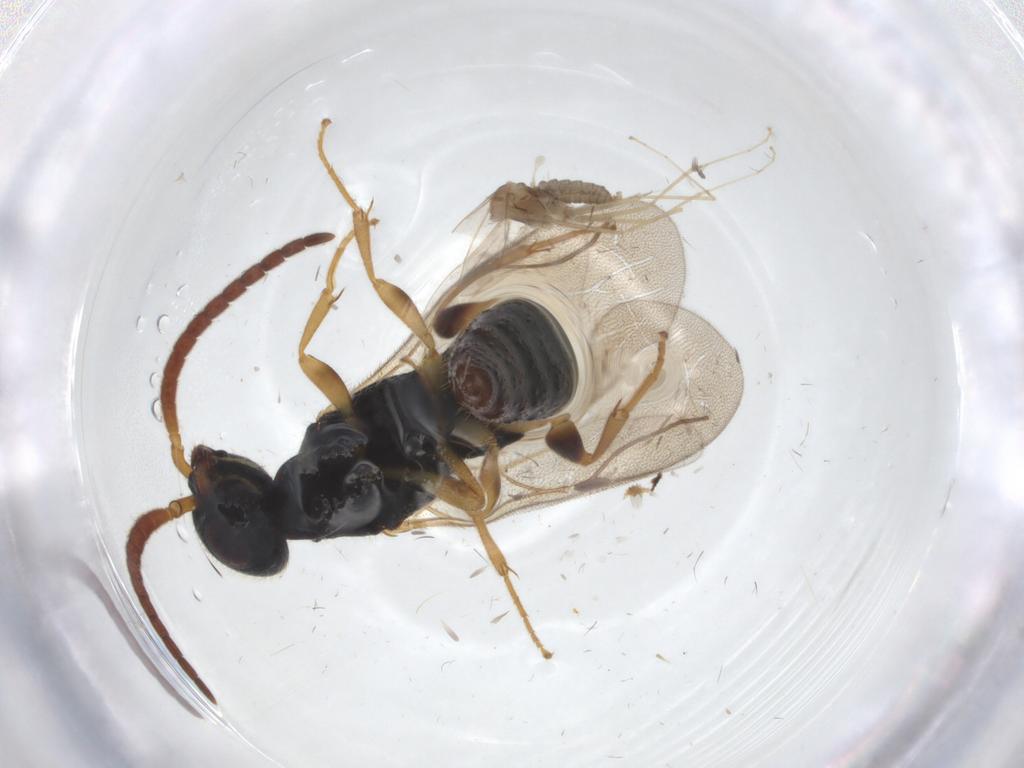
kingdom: Animalia
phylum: Arthropoda
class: Insecta
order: Diptera
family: Cecidomyiidae
